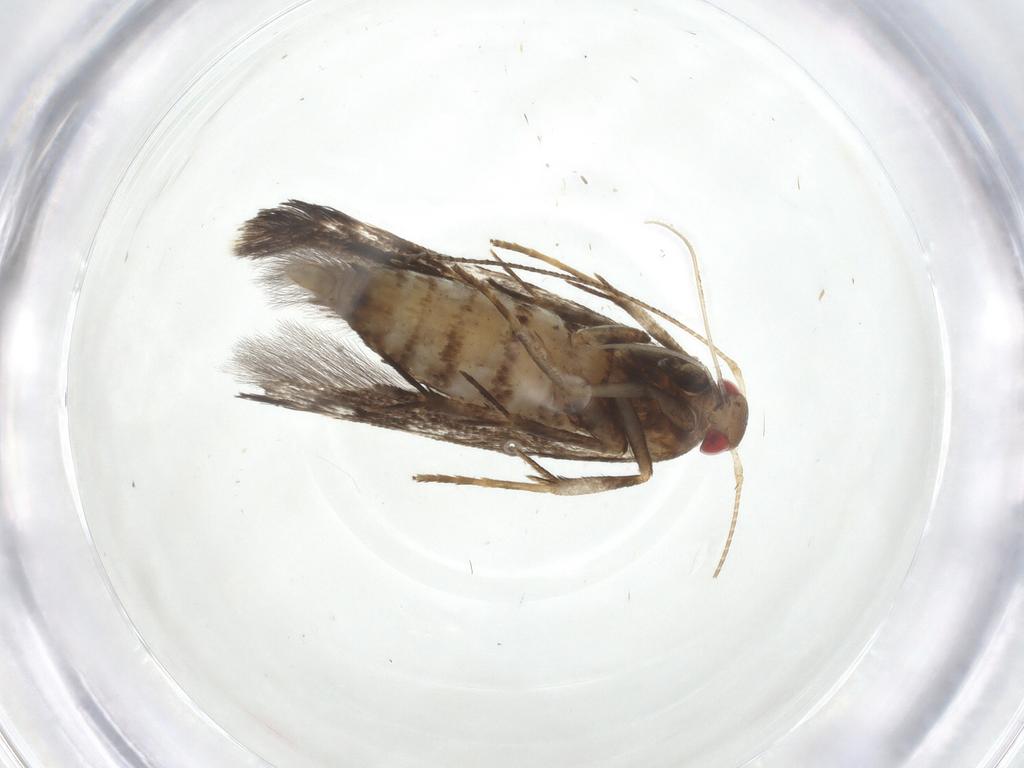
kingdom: Animalia
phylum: Arthropoda
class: Insecta
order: Lepidoptera
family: Gelechiidae
